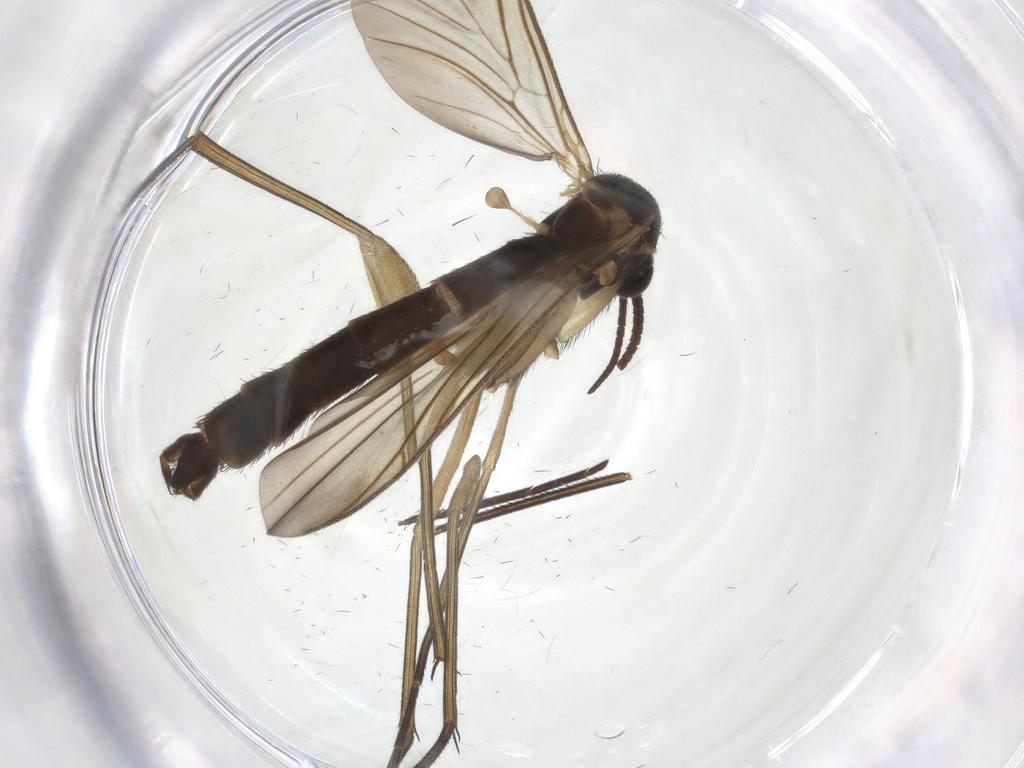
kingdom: Animalia
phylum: Arthropoda
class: Insecta
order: Diptera
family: Chironomidae
